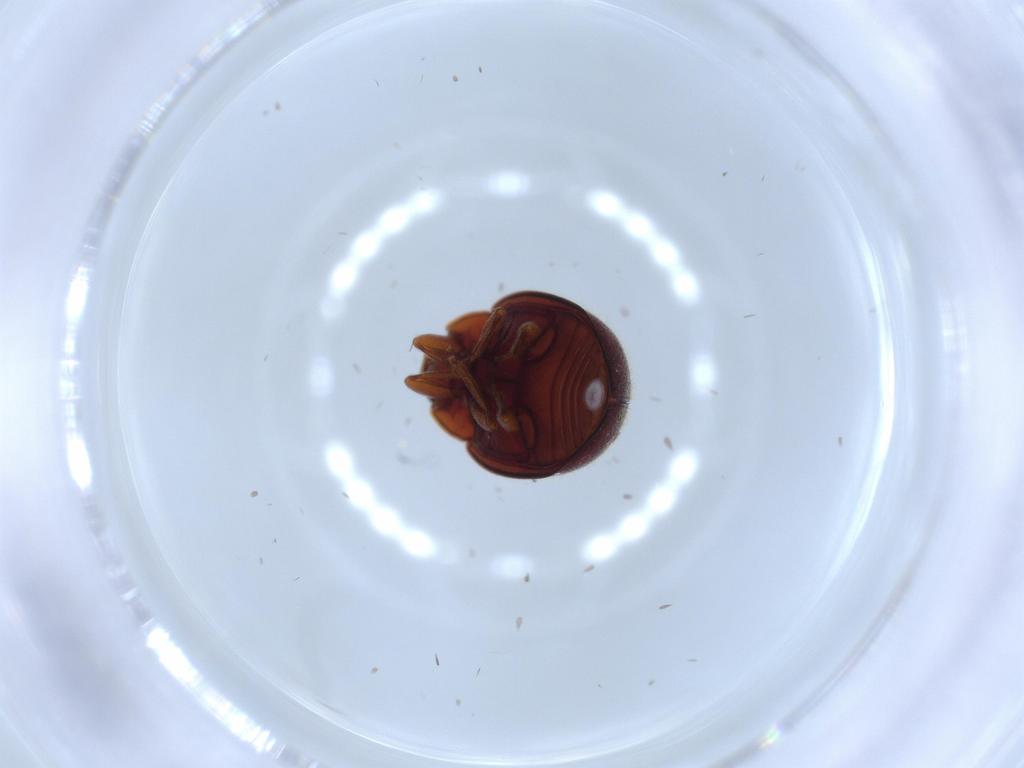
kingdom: Animalia
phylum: Arthropoda
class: Insecta
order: Coleoptera
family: Coccinellidae
